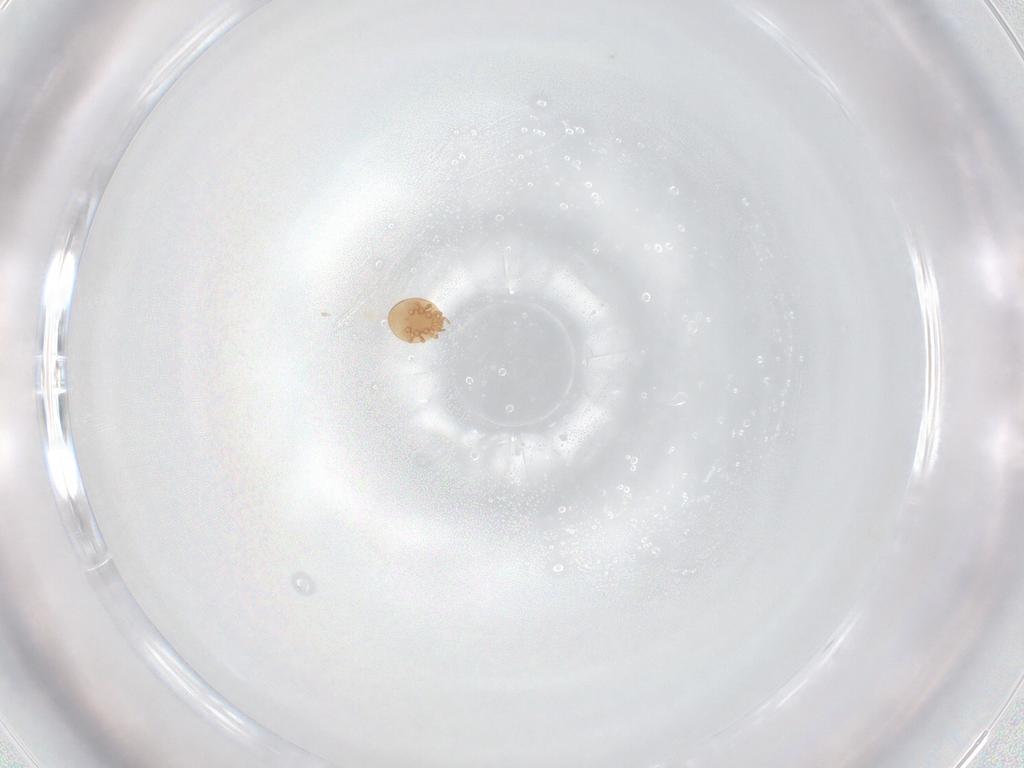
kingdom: Animalia
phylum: Arthropoda
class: Arachnida
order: Mesostigmata
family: Trematuridae
